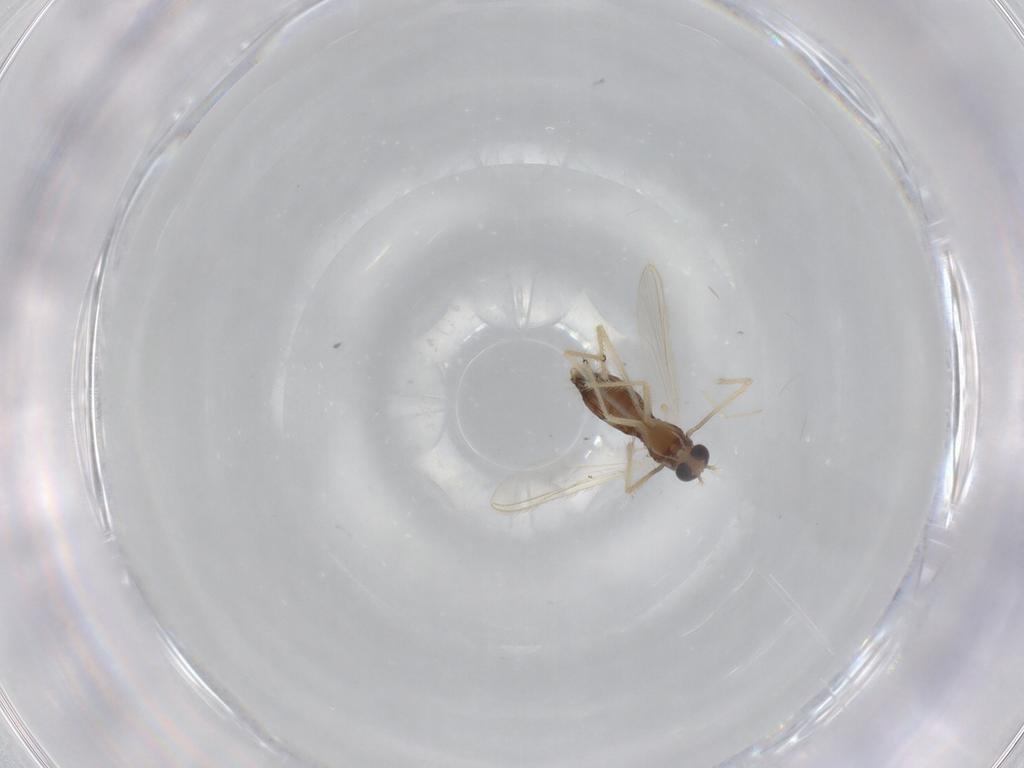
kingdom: Animalia
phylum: Arthropoda
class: Insecta
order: Diptera
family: Chironomidae
